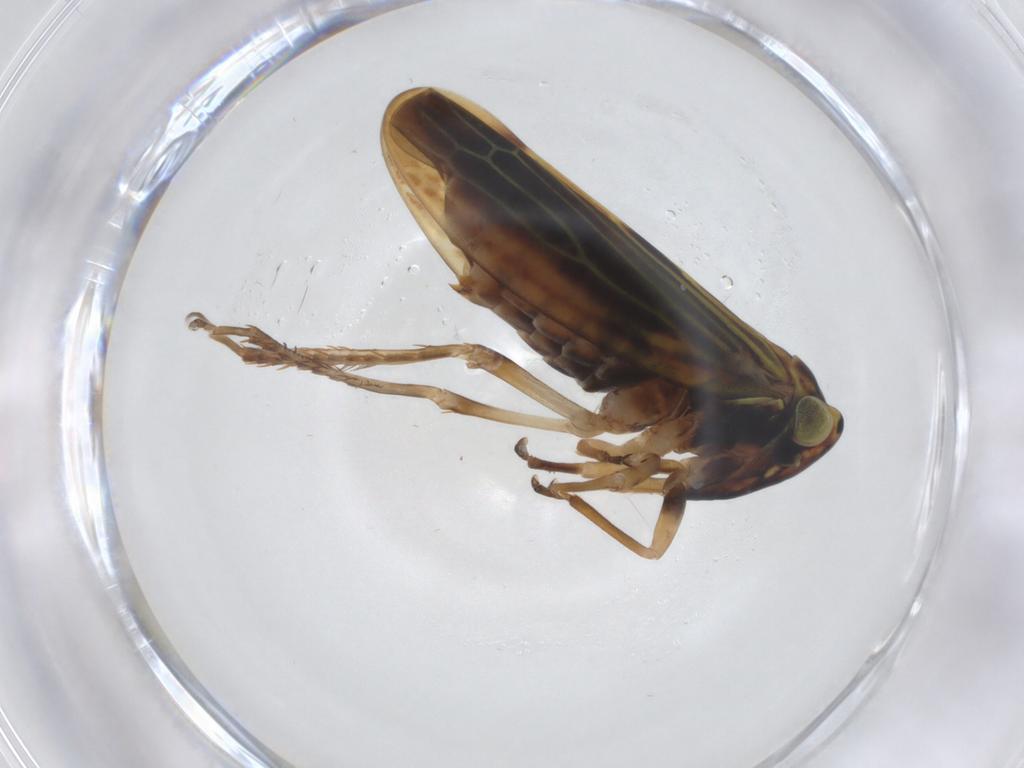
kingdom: Animalia
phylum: Arthropoda
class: Insecta
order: Hemiptera
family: Cicadellidae
